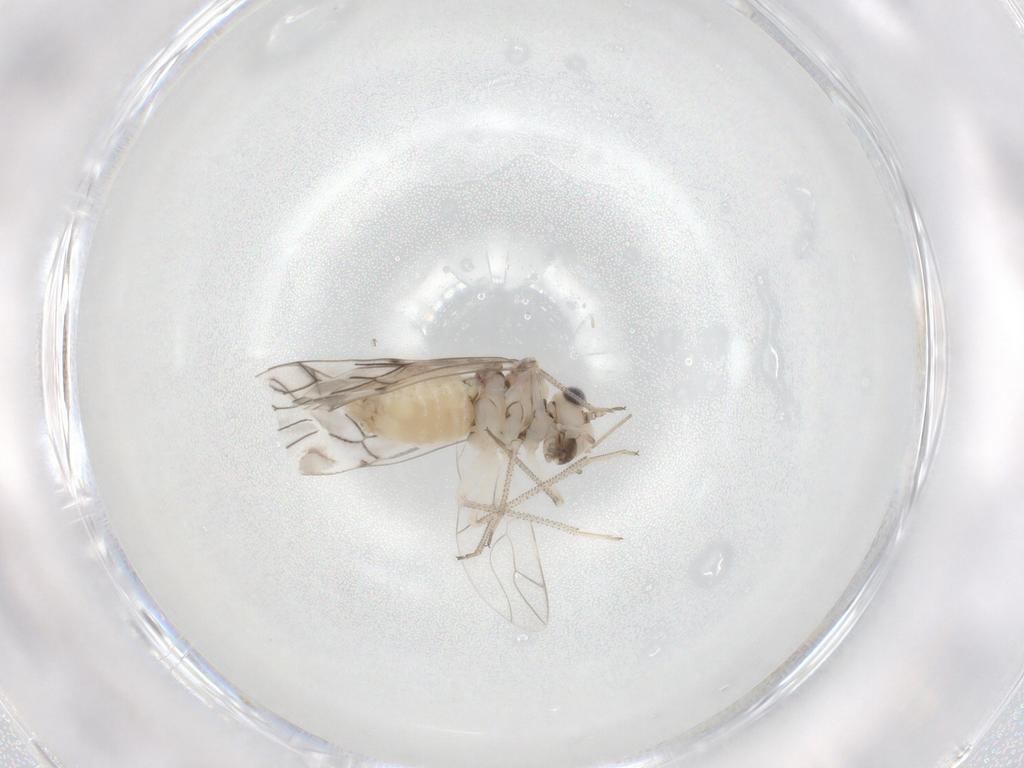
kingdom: Animalia
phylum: Arthropoda
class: Insecta
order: Psocodea
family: Psocidae
